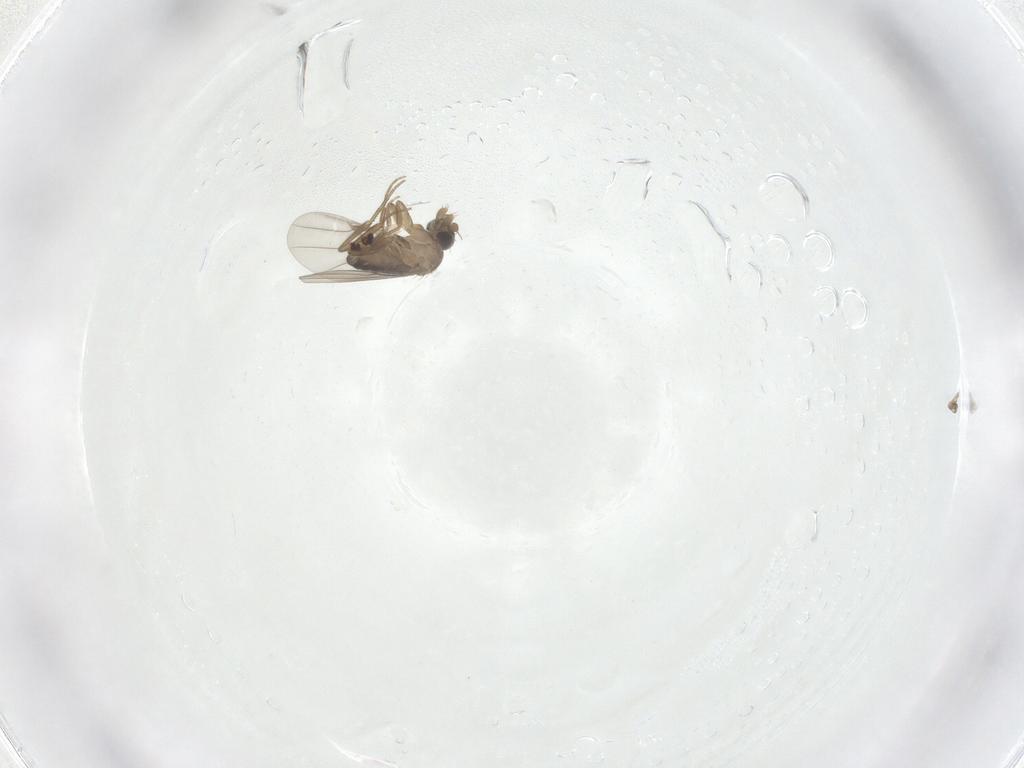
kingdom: Animalia
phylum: Arthropoda
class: Insecta
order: Diptera
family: Phoridae
